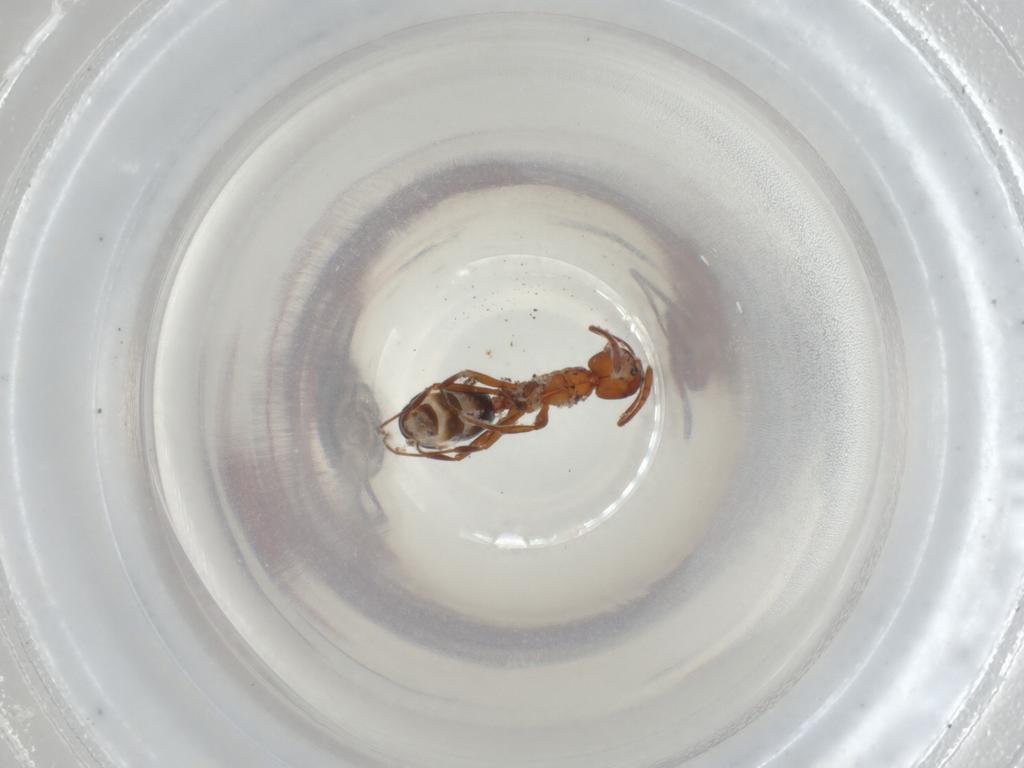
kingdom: Animalia
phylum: Arthropoda
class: Insecta
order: Hymenoptera
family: Formicidae
